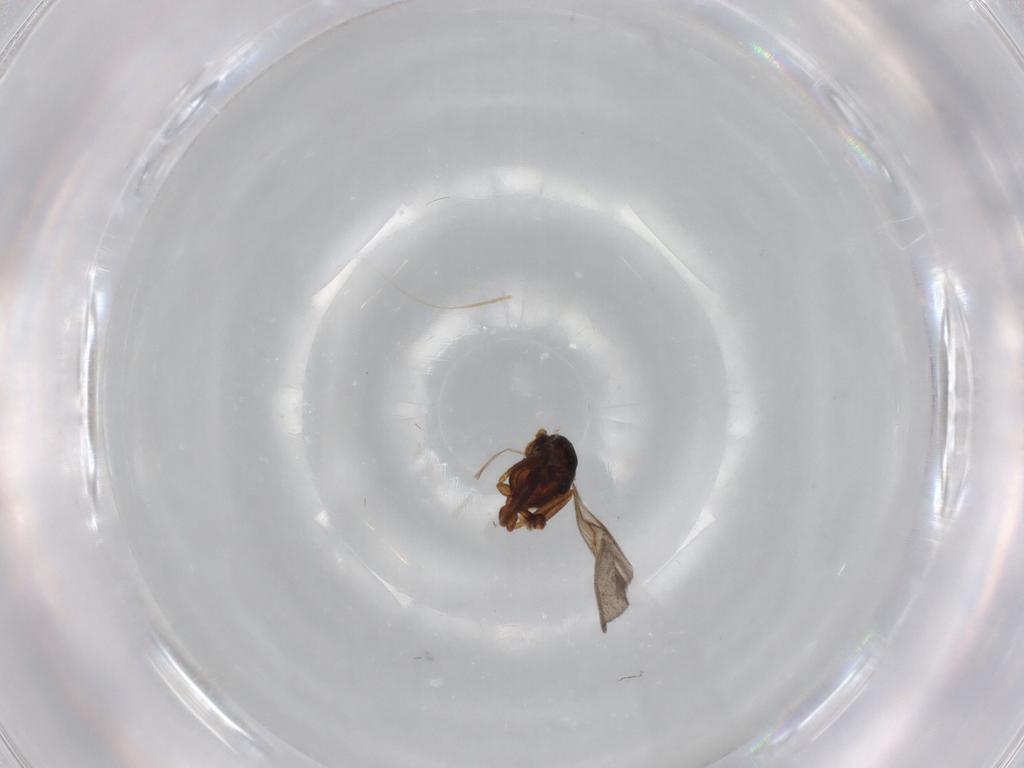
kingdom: Animalia
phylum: Arthropoda
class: Insecta
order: Hymenoptera
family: Formicidae
